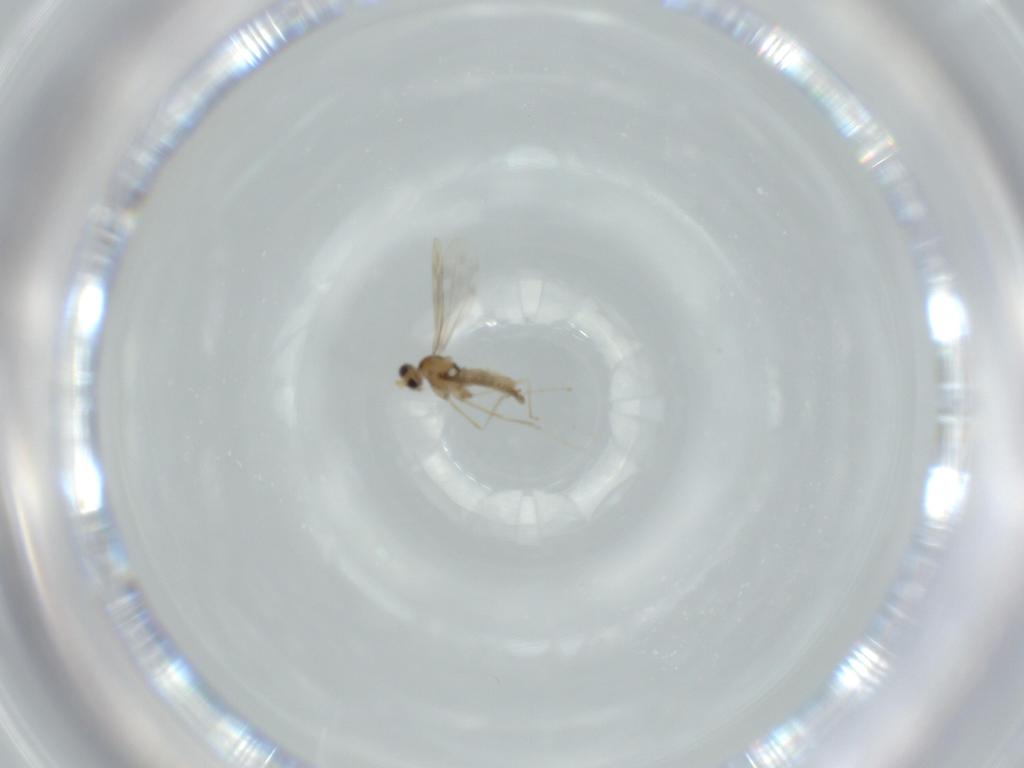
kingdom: Animalia
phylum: Arthropoda
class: Insecta
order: Diptera
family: Cecidomyiidae
